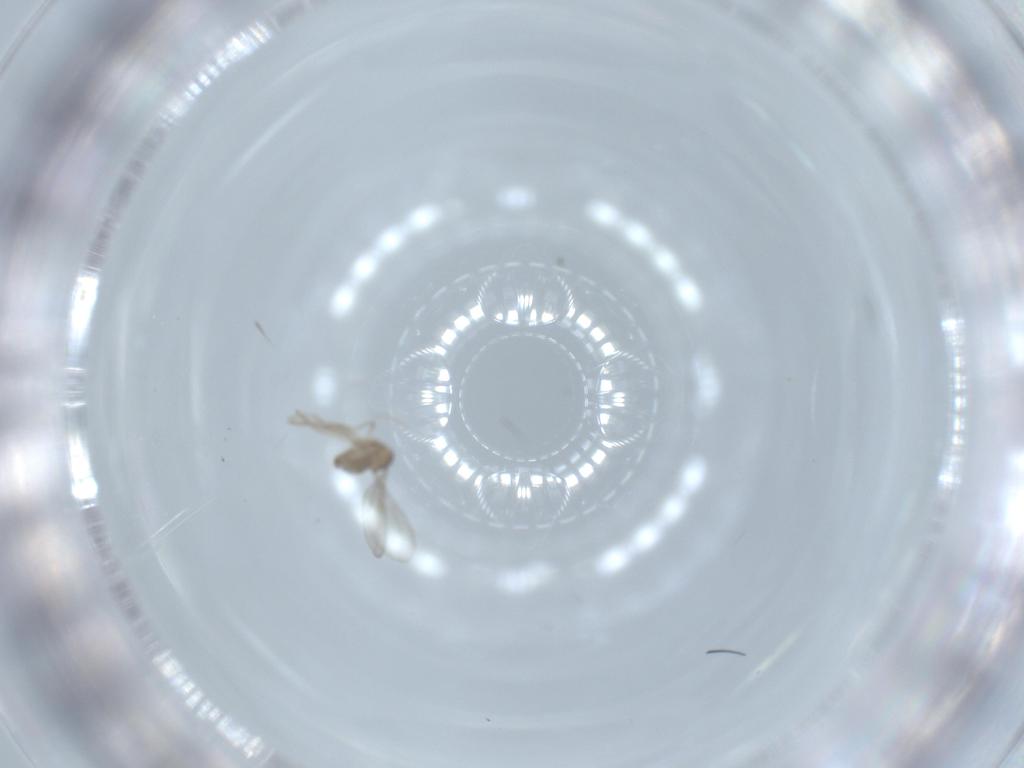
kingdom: Animalia
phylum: Arthropoda
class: Insecta
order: Diptera
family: Cecidomyiidae
